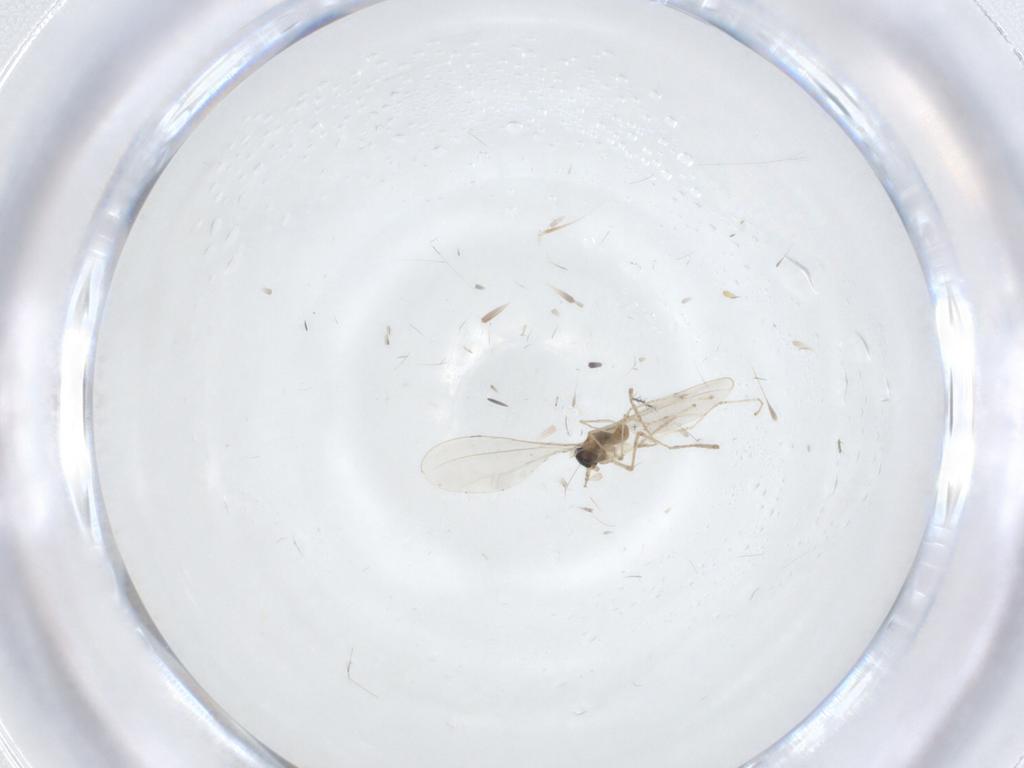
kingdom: Animalia
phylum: Arthropoda
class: Insecta
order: Diptera
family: Cecidomyiidae
